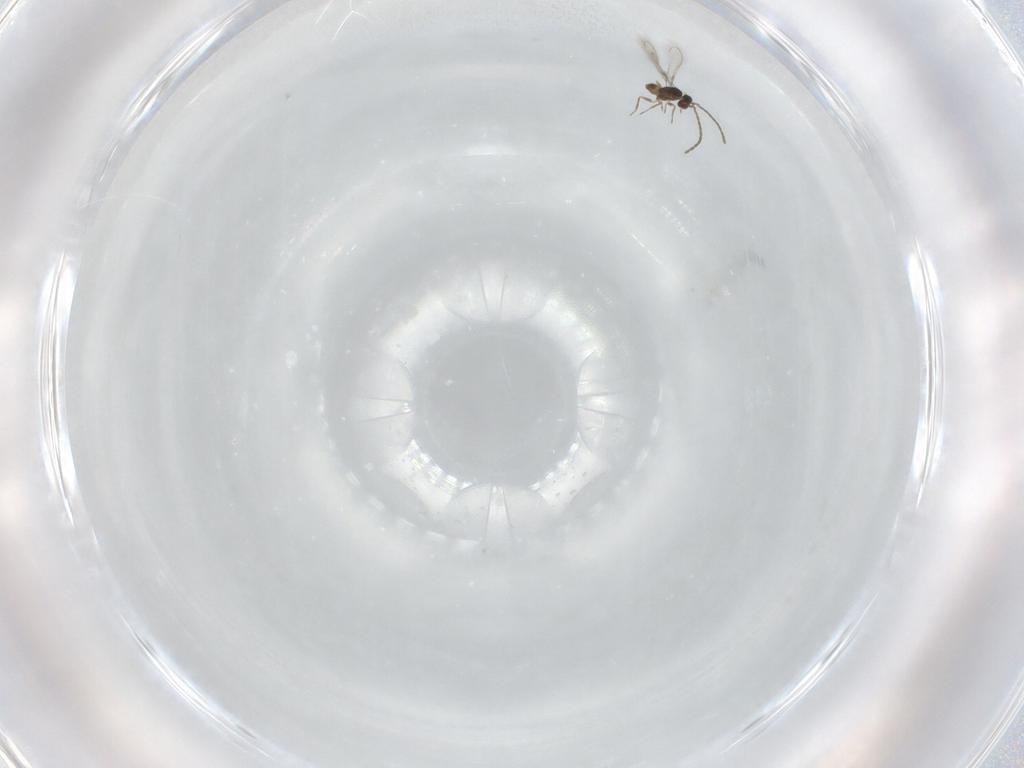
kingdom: Animalia
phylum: Arthropoda
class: Insecta
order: Hymenoptera
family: Mymaridae
